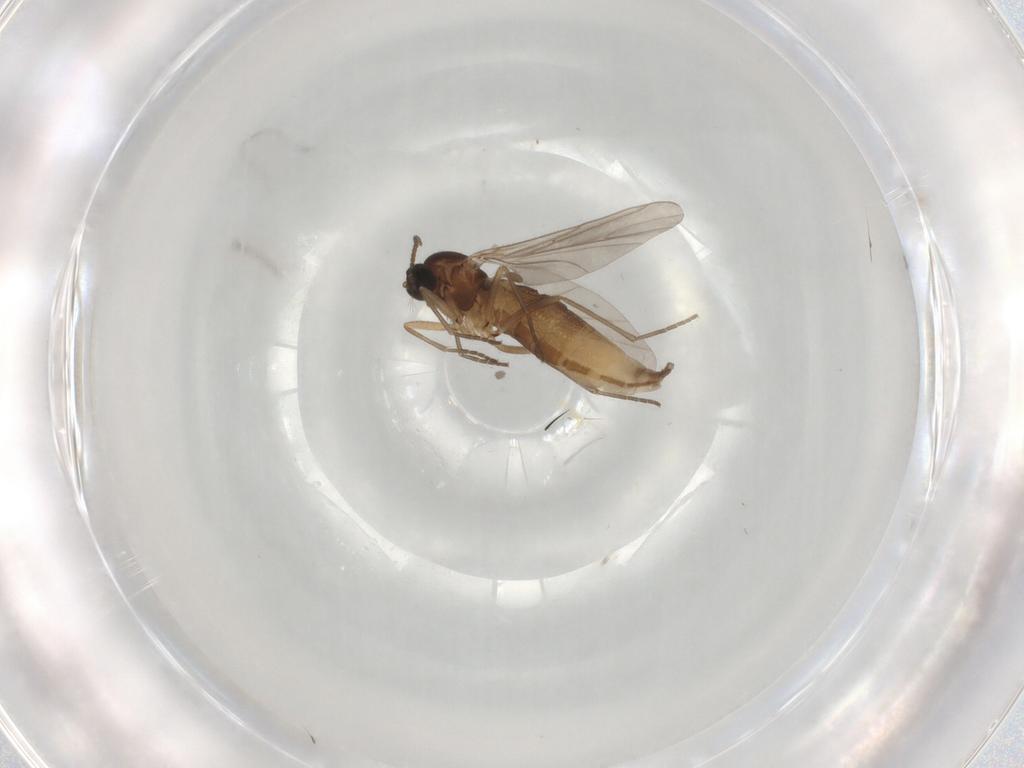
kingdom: Animalia
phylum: Arthropoda
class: Insecta
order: Diptera
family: Sciaridae
